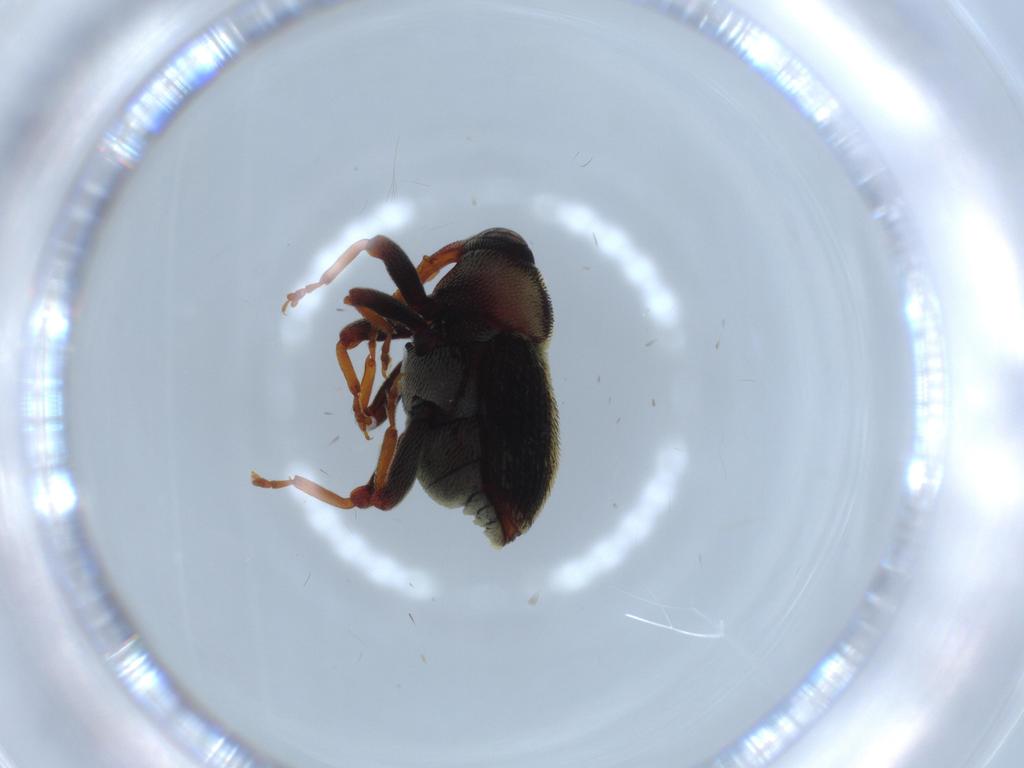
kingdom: Animalia
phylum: Arthropoda
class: Insecta
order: Coleoptera
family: Curculionidae
